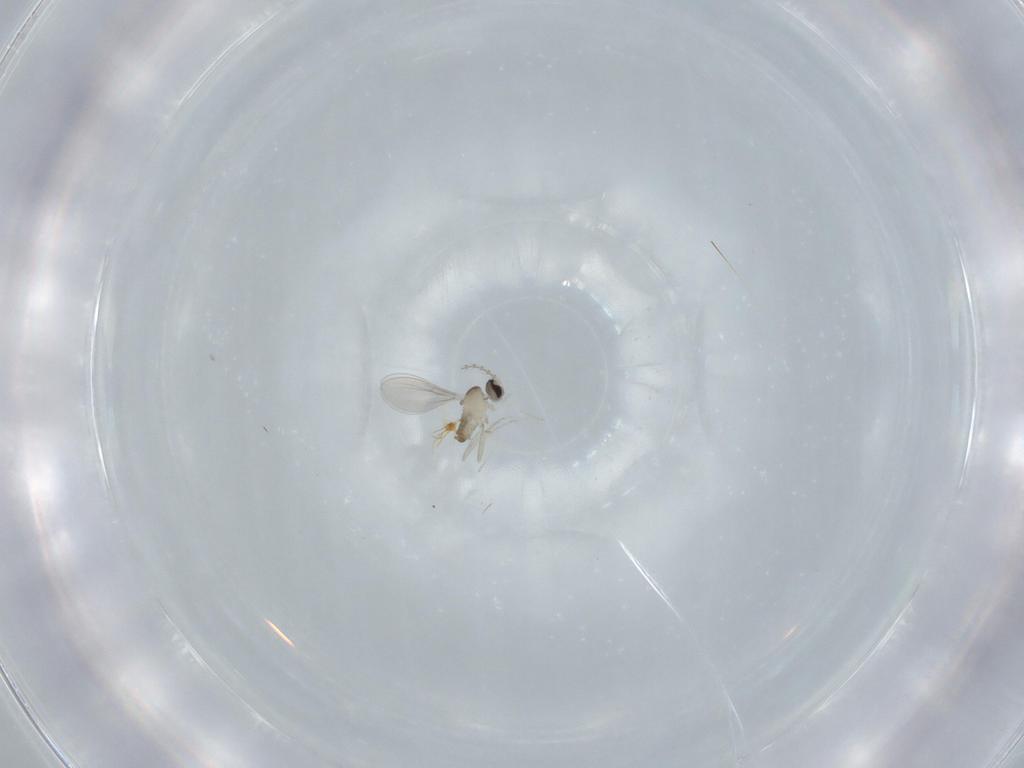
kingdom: Animalia
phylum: Arthropoda
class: Insecta
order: Diptera
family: Cecidomyiidae
